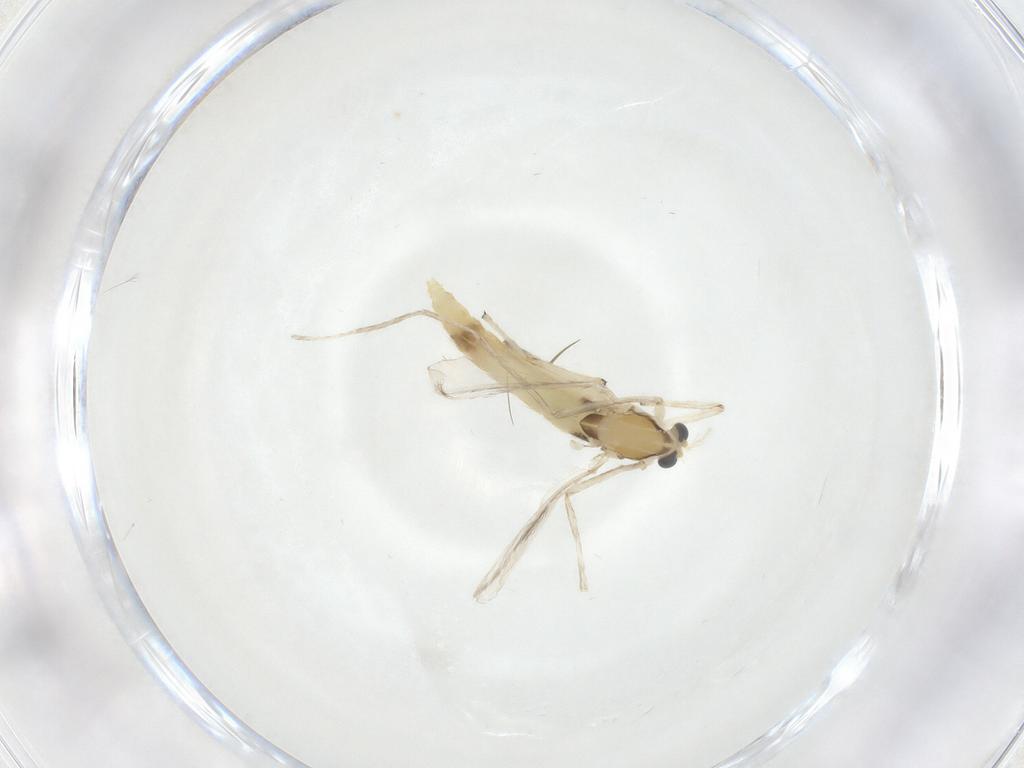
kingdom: Animalia
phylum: Arthropoda
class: Insecta
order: Diptera
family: Chironomidae
